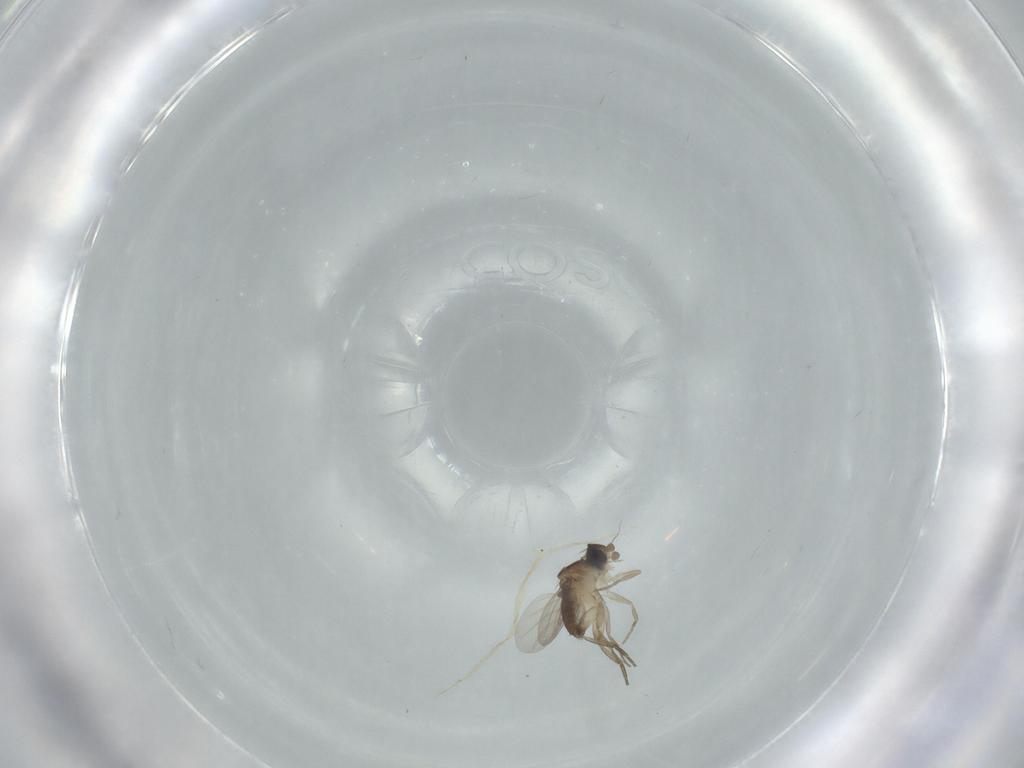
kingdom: Animalia
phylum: Arthropoda
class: Insecta
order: Diptera
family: Phoridae
